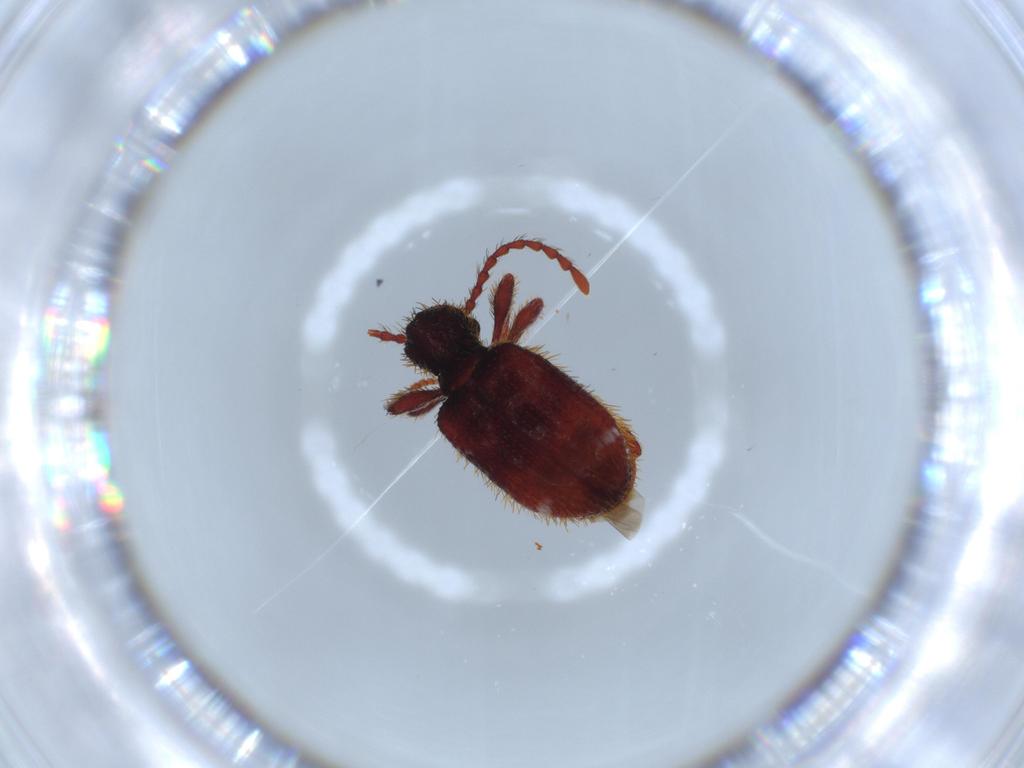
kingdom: Animalia
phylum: Arthropoda
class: Insecta
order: Coleoptera
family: Ptinidae
